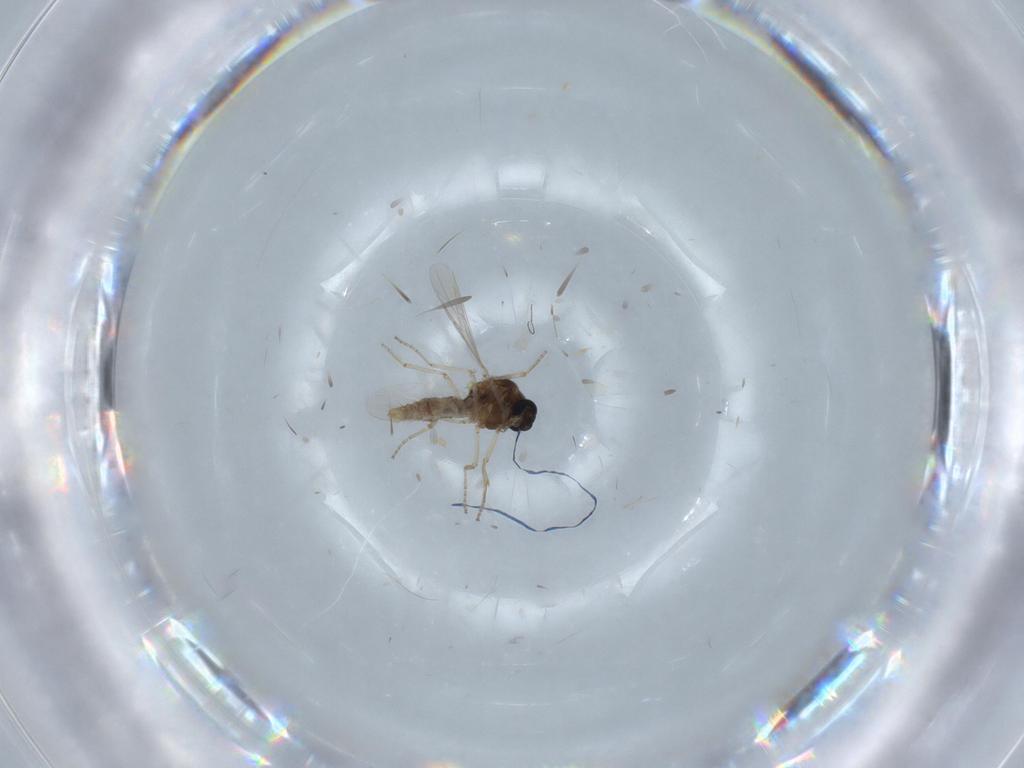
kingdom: Animalia
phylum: Arthropoda
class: Insecta
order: Diptera
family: Ceratopogonidae
